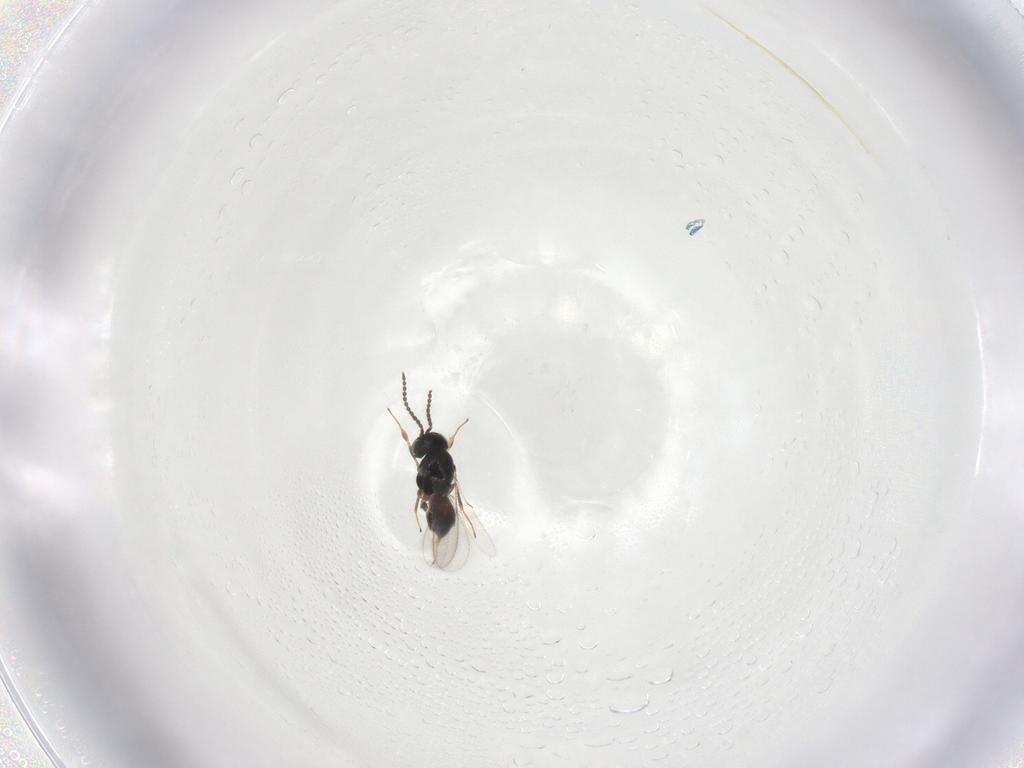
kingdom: Animalia
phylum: Arthropoda
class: Insecta
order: Hymenoptera
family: Scelionidae
